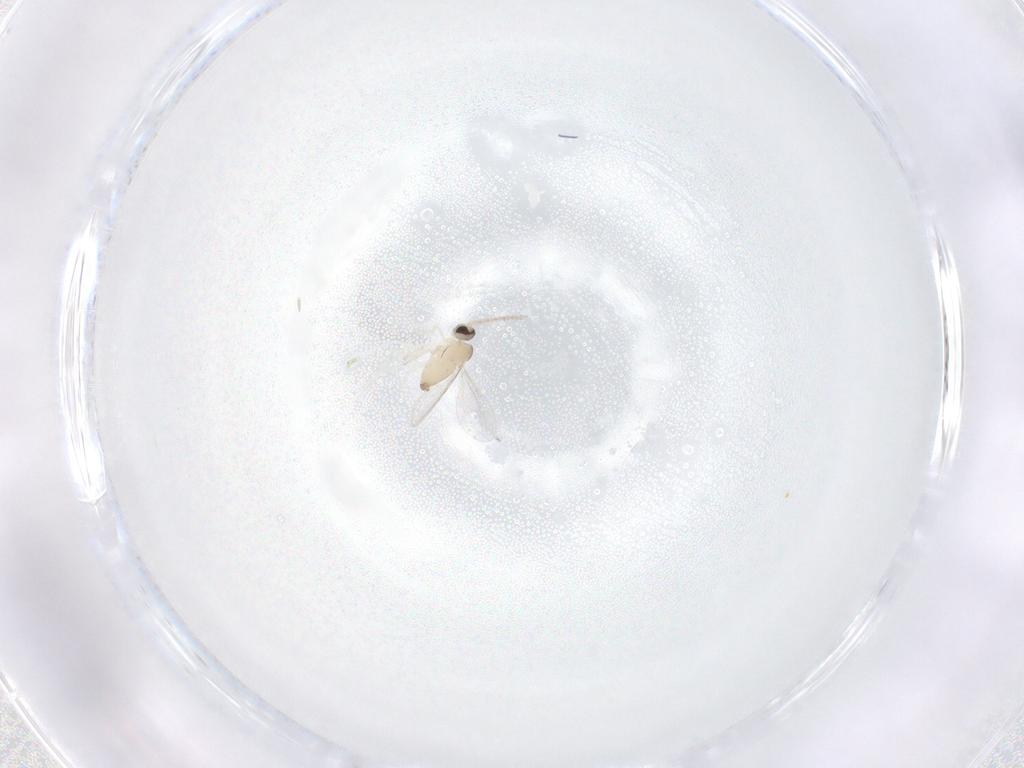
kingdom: Animalia
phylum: Arthropoda
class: Insecta
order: Diptera
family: Cecidomyiidae
